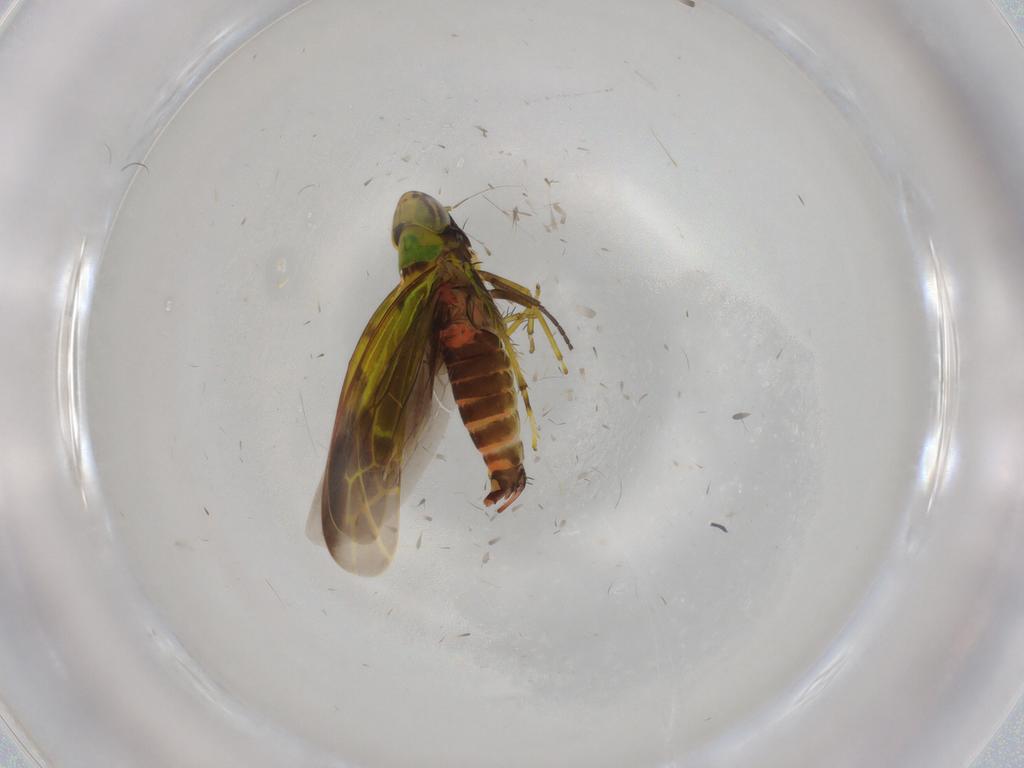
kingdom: Animalia
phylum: Arthropoda
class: Insecta
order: Hemiptera
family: Cicadellidae
